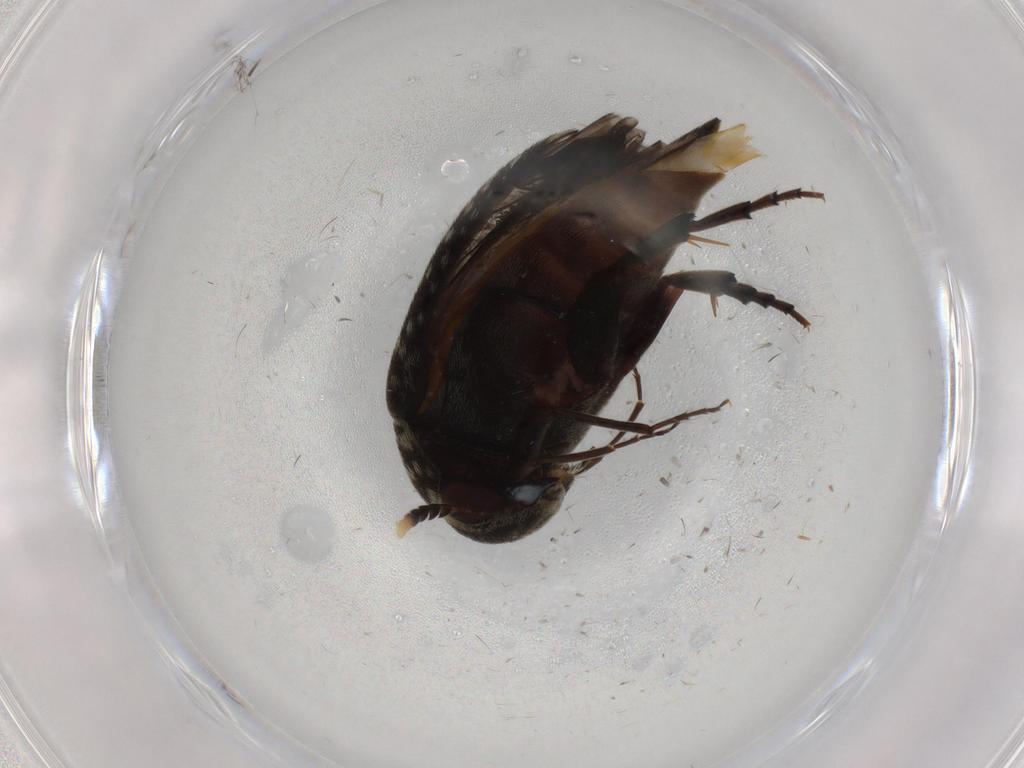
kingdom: Animalia
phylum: Arthropoda
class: Insecta
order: Coleoptera
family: Mordellidae
